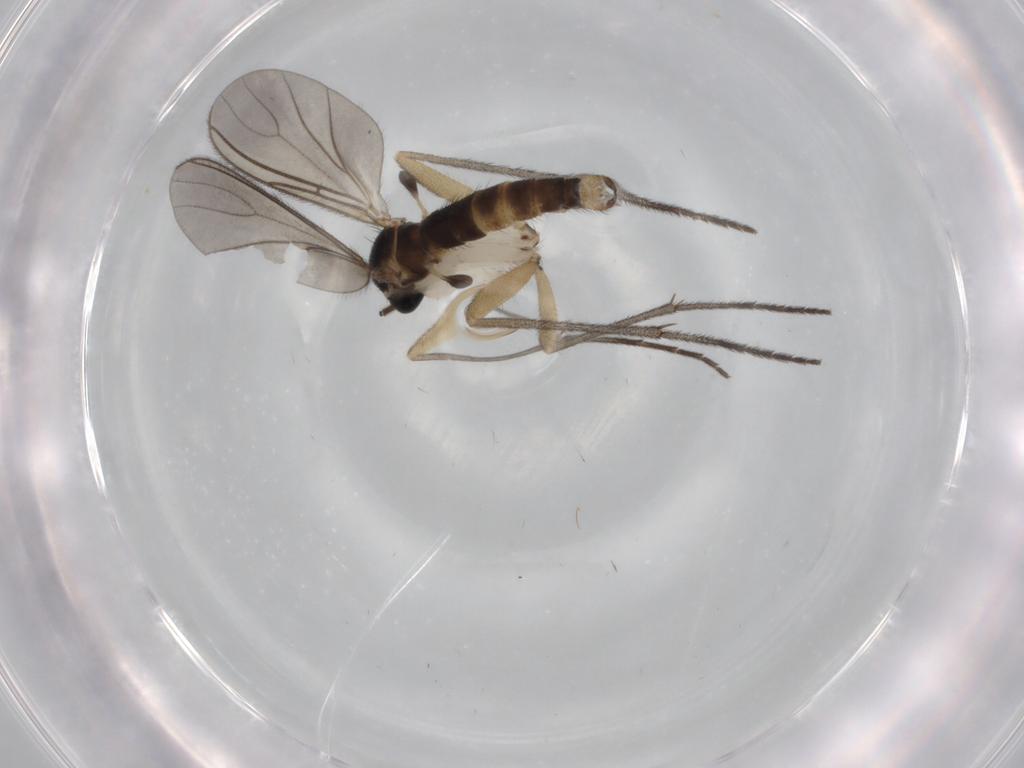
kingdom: Animalia
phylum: Arthropoda
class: Insecta
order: Diptera
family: Sciaridae
